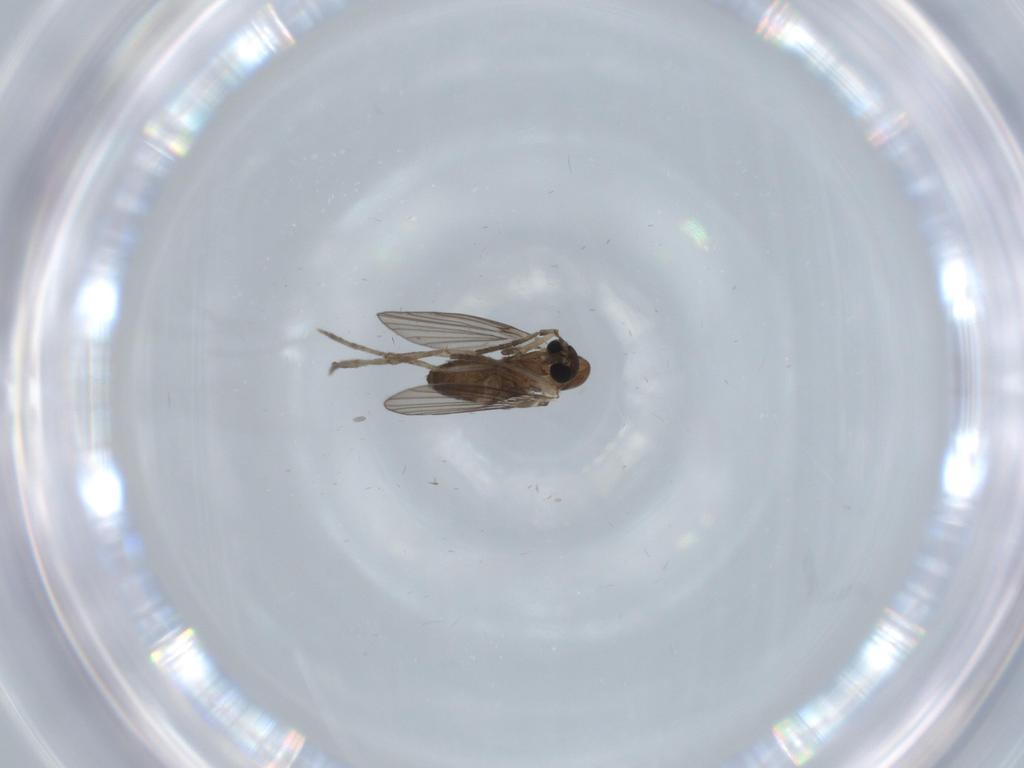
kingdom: Animalia
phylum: Arthropoda
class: Insecta
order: Diptera
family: Psychodidae
